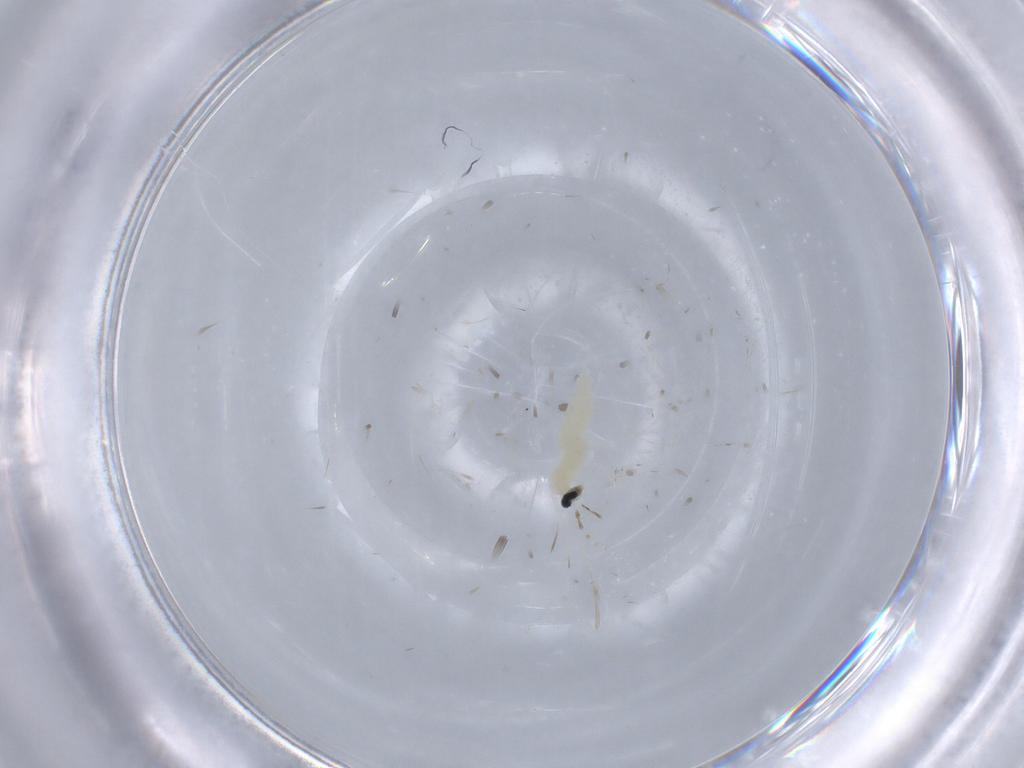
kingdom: Animalia
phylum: Arthropoda
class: Insecta
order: Diptera
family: Cecidomyiidae
